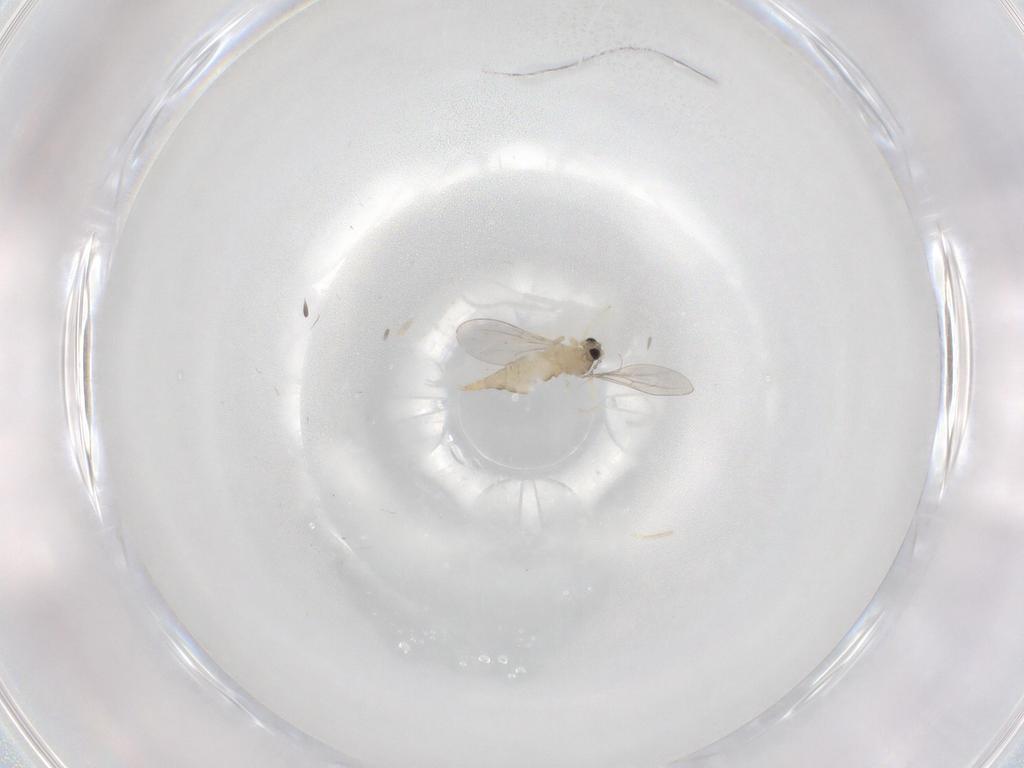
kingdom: Animalia
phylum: Arthropoda
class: Insecta
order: Diptera
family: Cecidomyiidae
